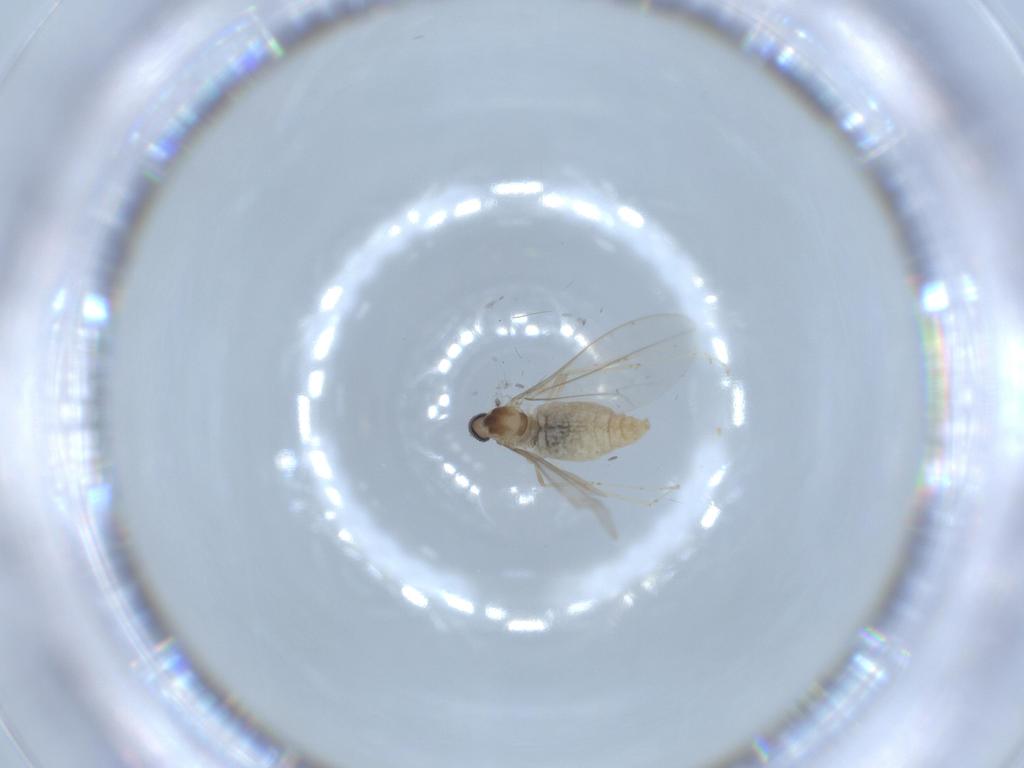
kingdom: Animalia
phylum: Arthropoda
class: Insecta
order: Diptera
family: Cecidomyiidae
